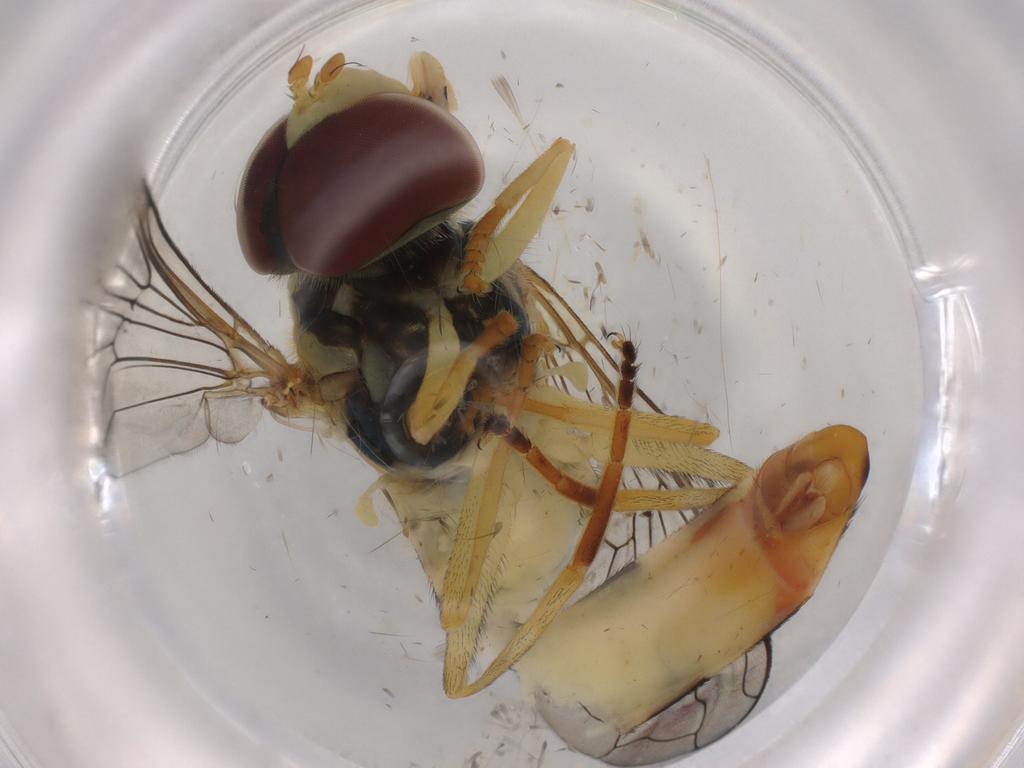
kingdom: Animalia
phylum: Arthropoda
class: Insecta
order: Diptera
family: Syrphidae
